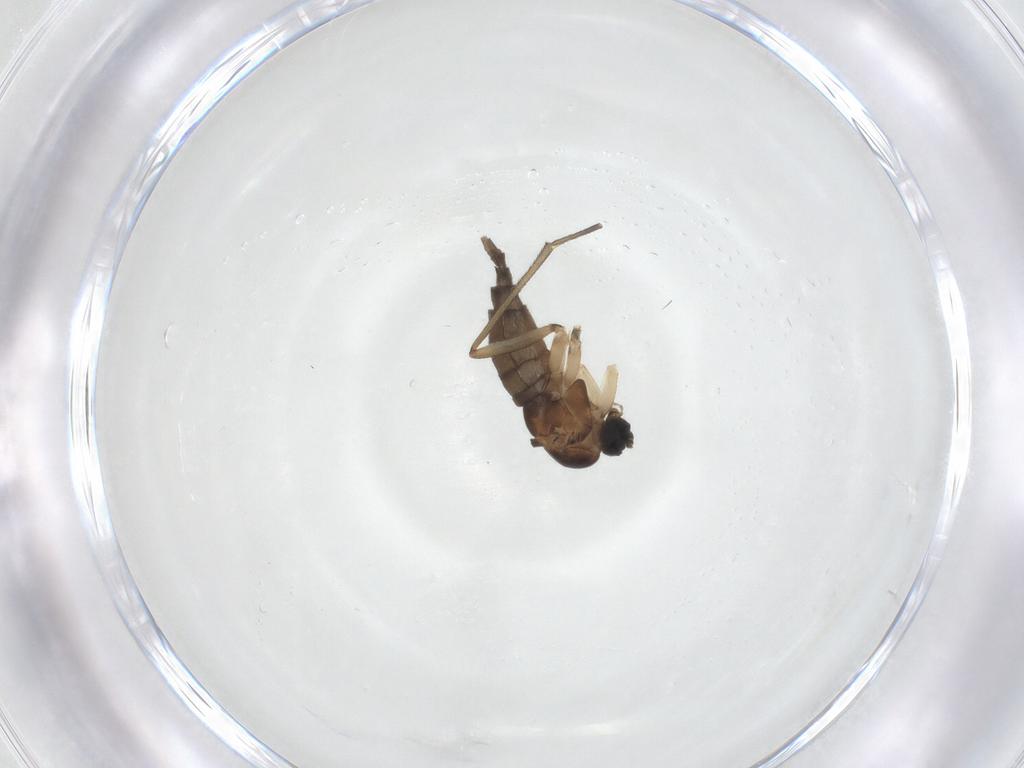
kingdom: Animalia
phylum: Arthropoda
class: Insecta
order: Diptera
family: Sciaridae
